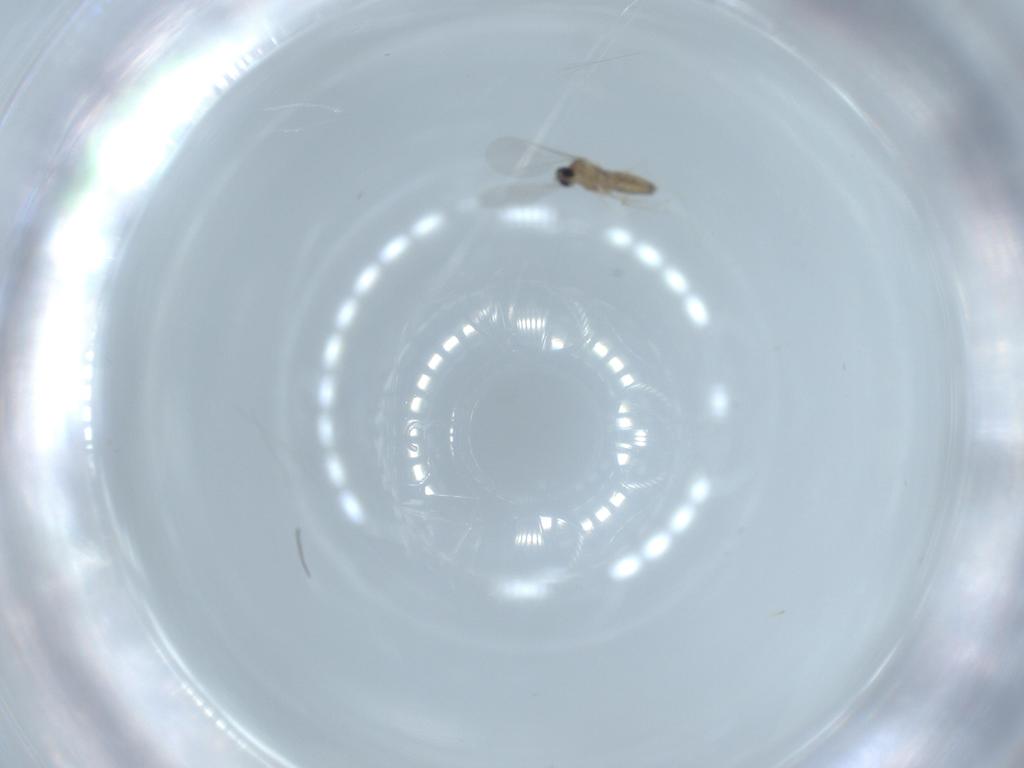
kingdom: Animalia
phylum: Arthropoda
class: Insecta
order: Diptera
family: Cecidomyiidae
